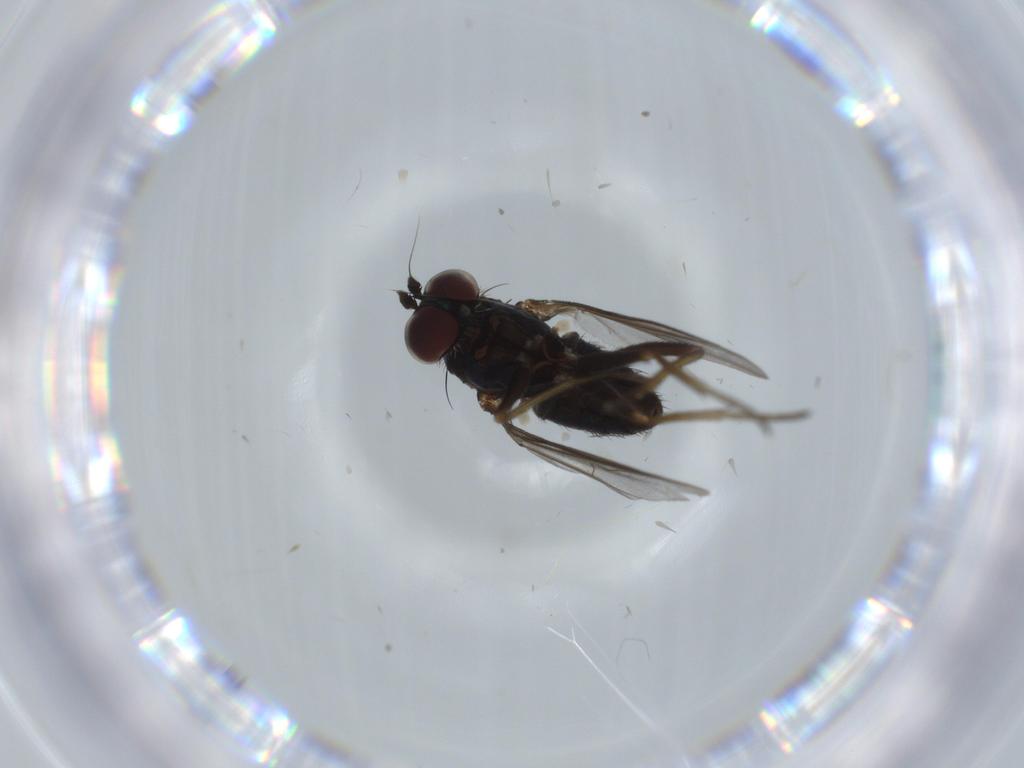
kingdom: Animalia
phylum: Arthropoda
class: Insecta
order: Diptera
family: Dolichopodidae
